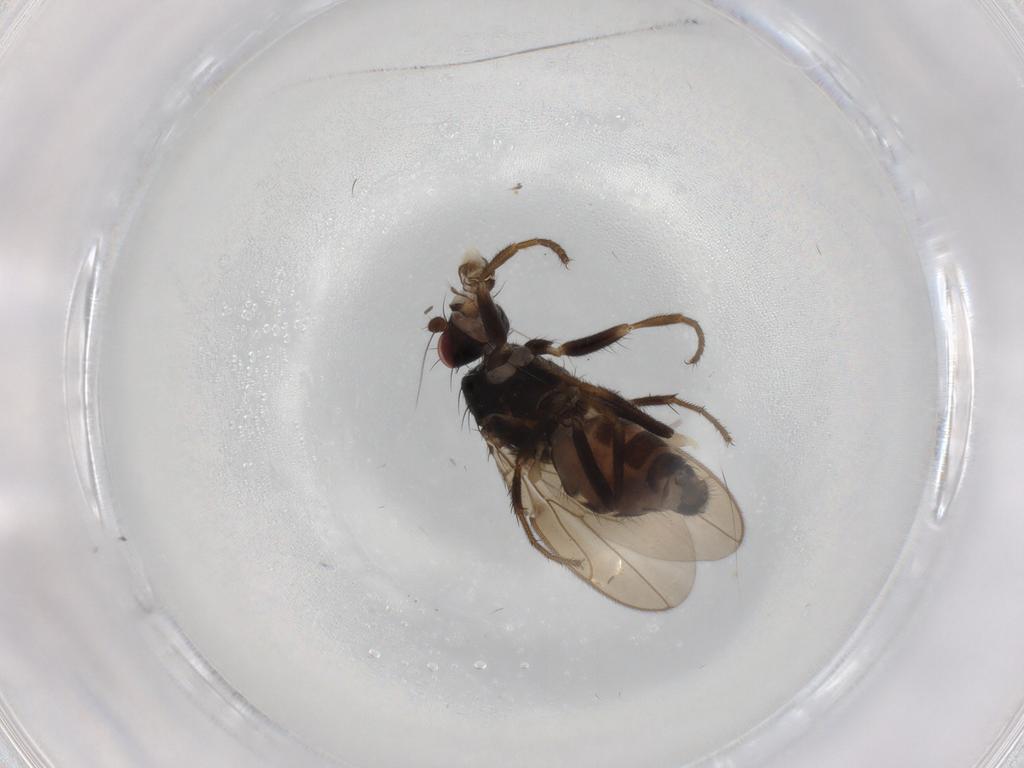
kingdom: Animalia
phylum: Arthropoda
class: Insecta
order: Diptera
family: Sphaeroceridae
